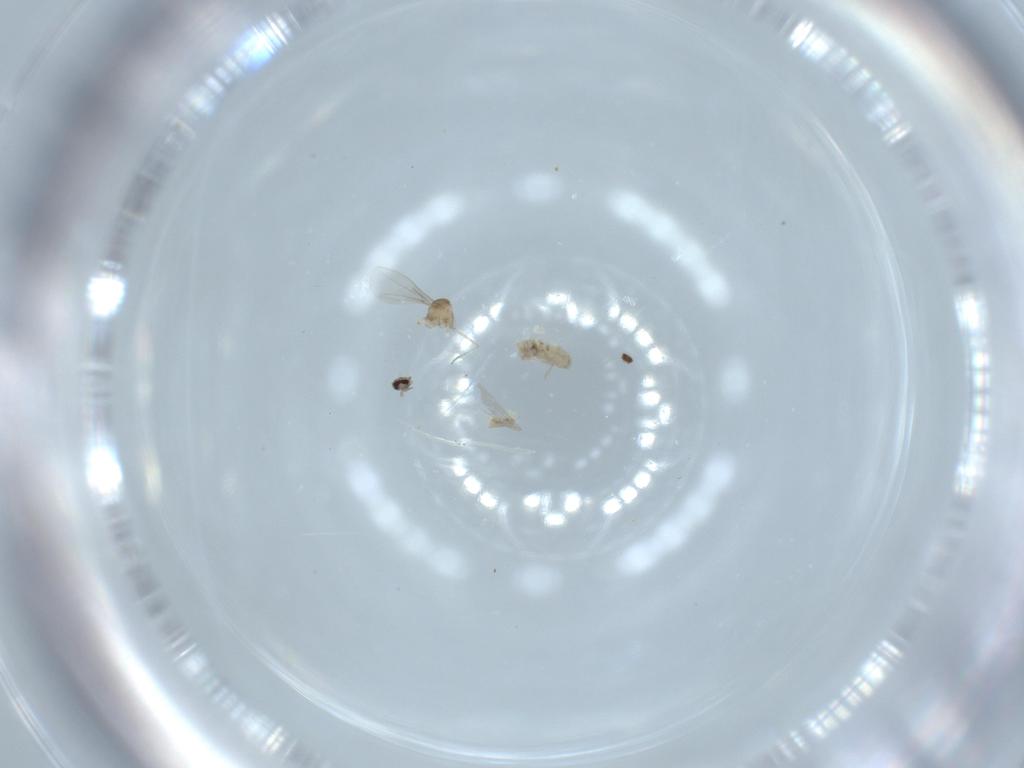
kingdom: Animalia
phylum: Arthropoda
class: Insecta
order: Diptera
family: Cecidomyiidae
